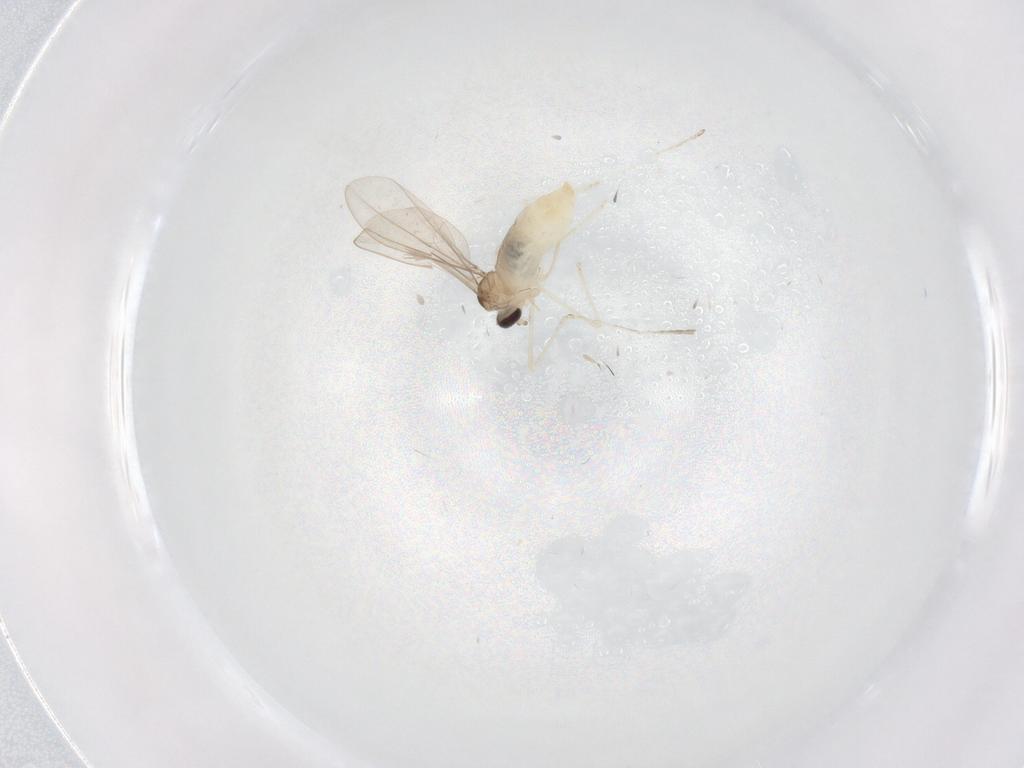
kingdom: Animalia
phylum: Arthropoda
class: Insecta
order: Diptera
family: Cecidomyiidae
